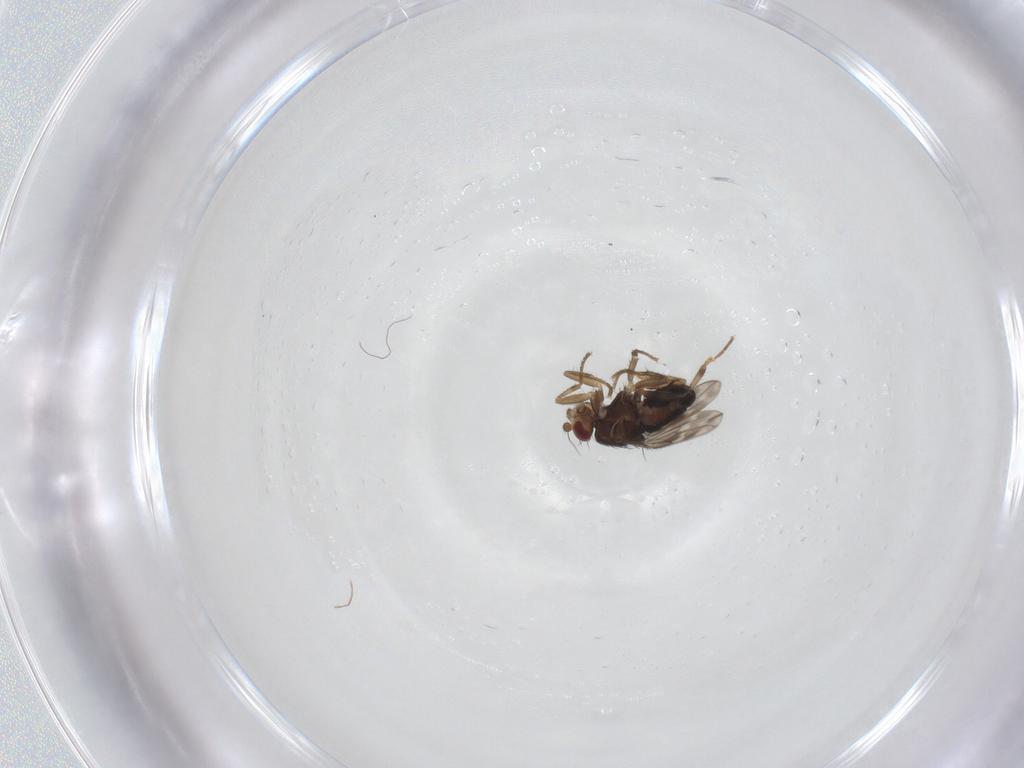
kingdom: Animalia
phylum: Arthropoda
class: Insecta
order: Diptera
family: Sphaeroceridae
